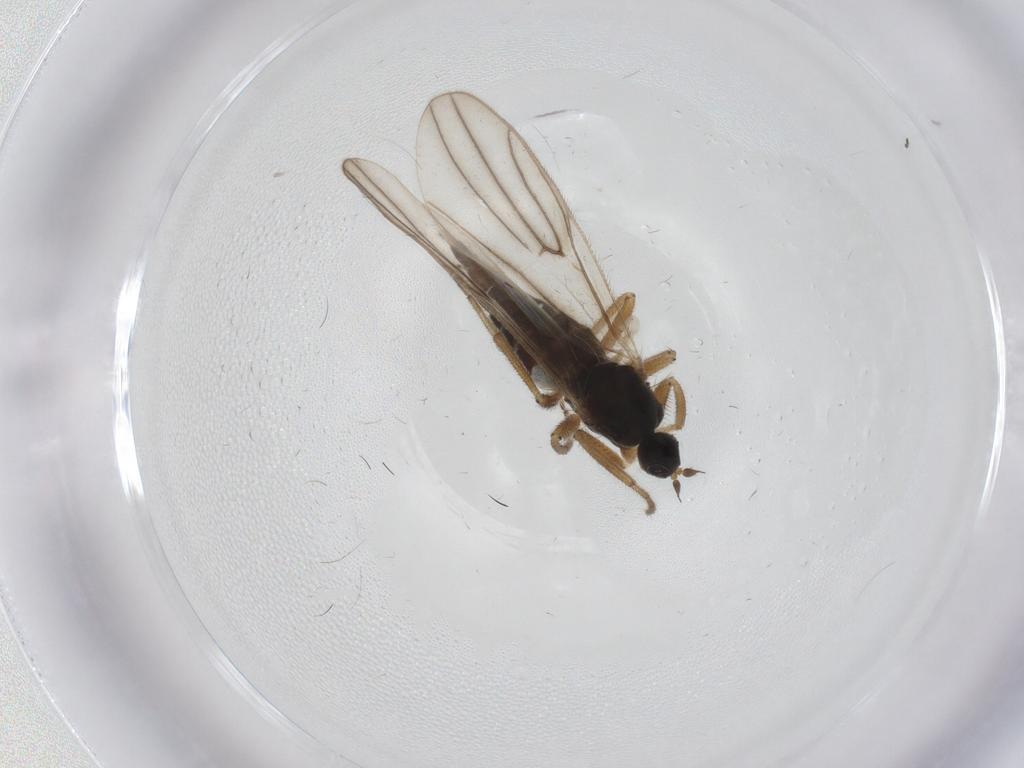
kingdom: Animalia
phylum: Arthropoda
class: Insecta
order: Diptera
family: Hybotidae
